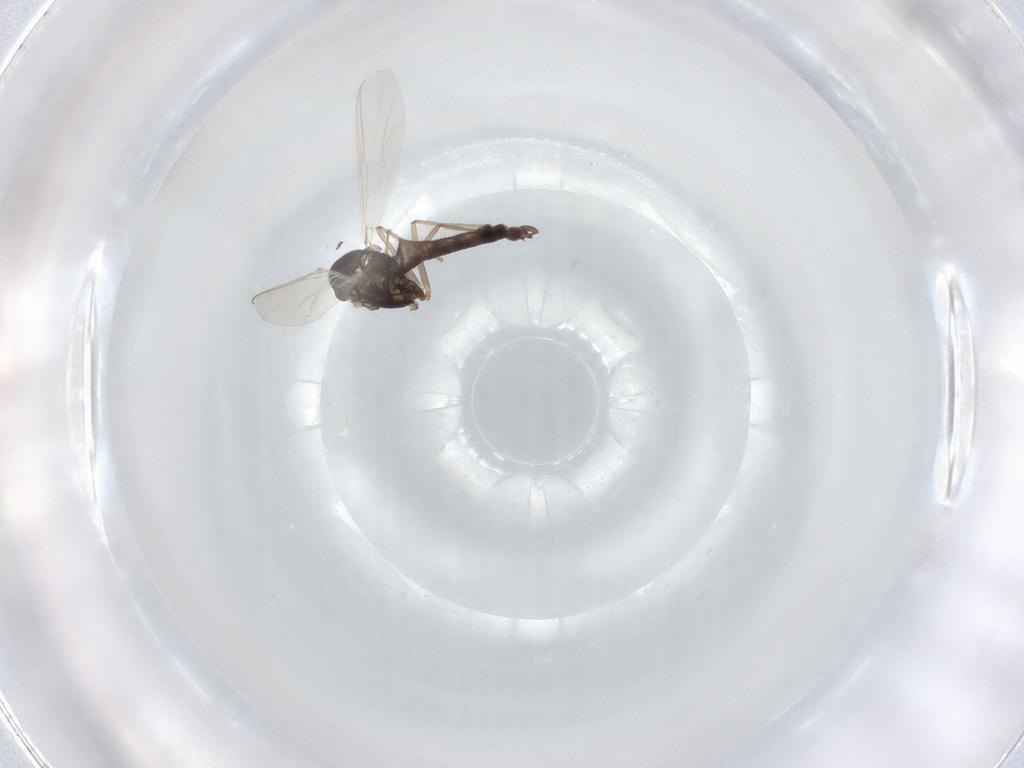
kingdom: Animalia
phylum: Arthropoda
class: Insecta
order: Diptera
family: Chironomidae
